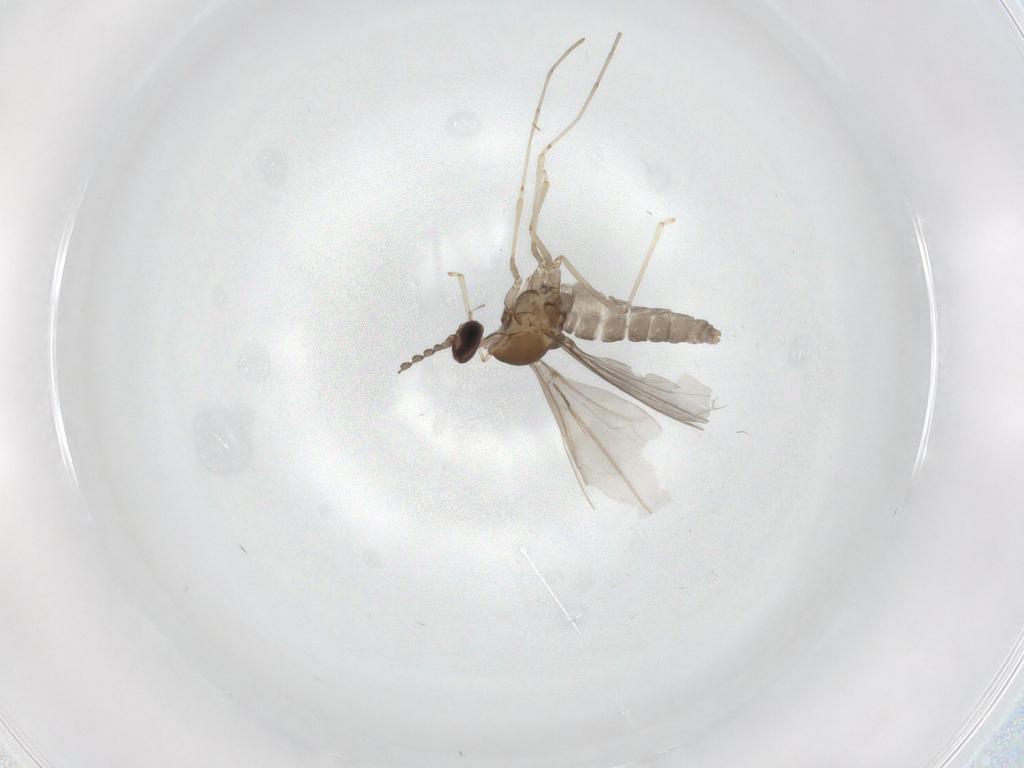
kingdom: Animalia
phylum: Arthropoda
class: Insecta
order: Diptera
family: Cecidomyiidae
